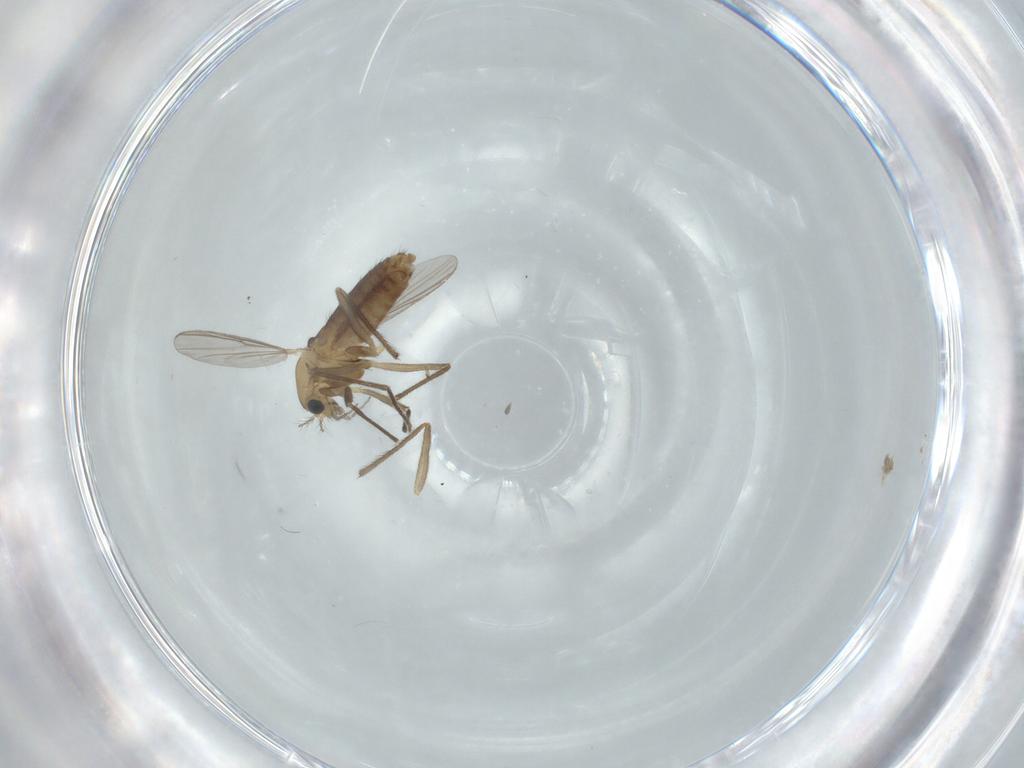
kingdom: Animalia
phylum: Arthropoda
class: Insecta
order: Diptera
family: Chironomidae
